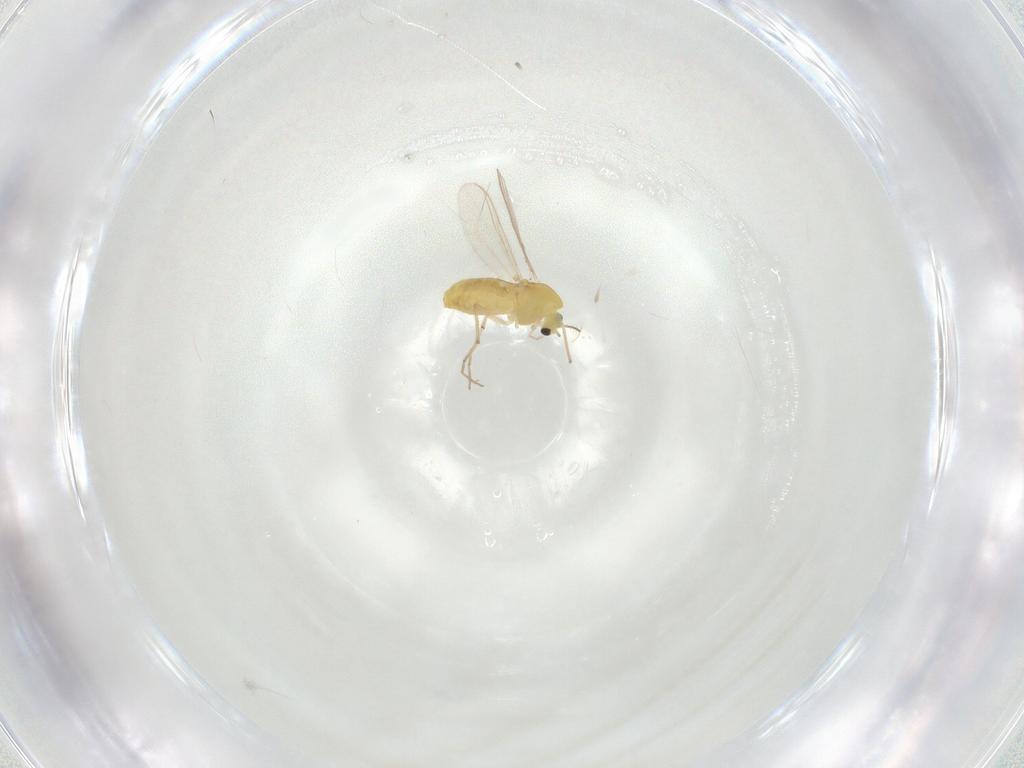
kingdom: Animalia
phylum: Arthropoda
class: Insecta
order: Diptera
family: Chironomidae
